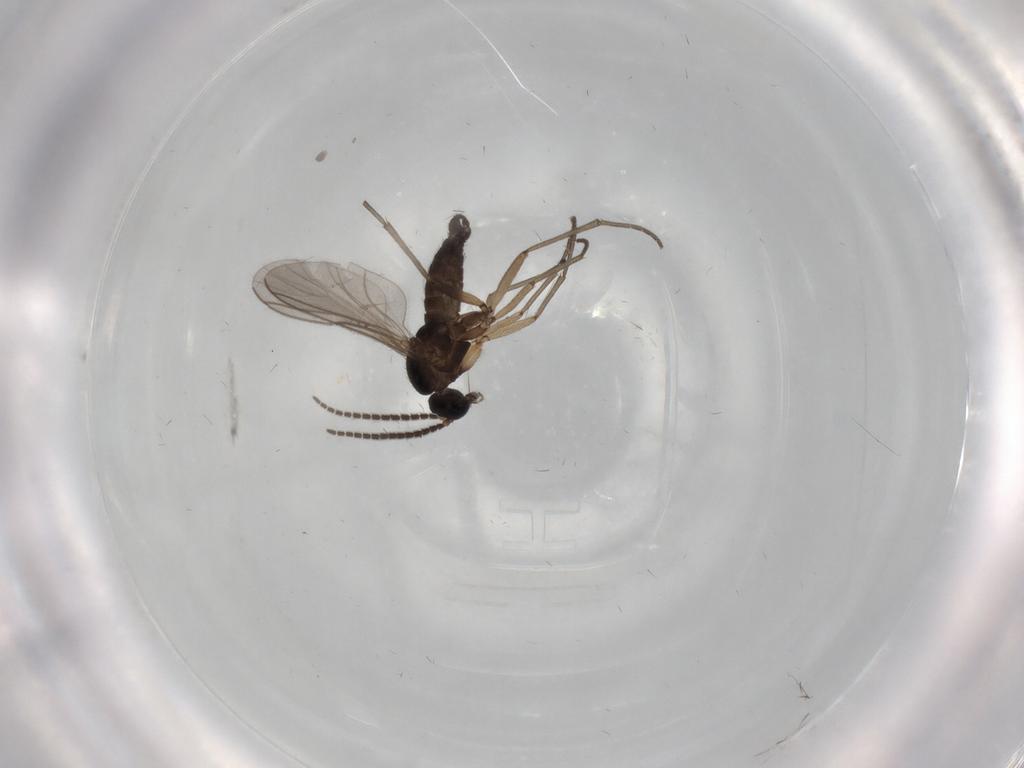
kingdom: Animalia
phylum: Arthropoda
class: Insecta
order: Diptera
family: Sciaridae
